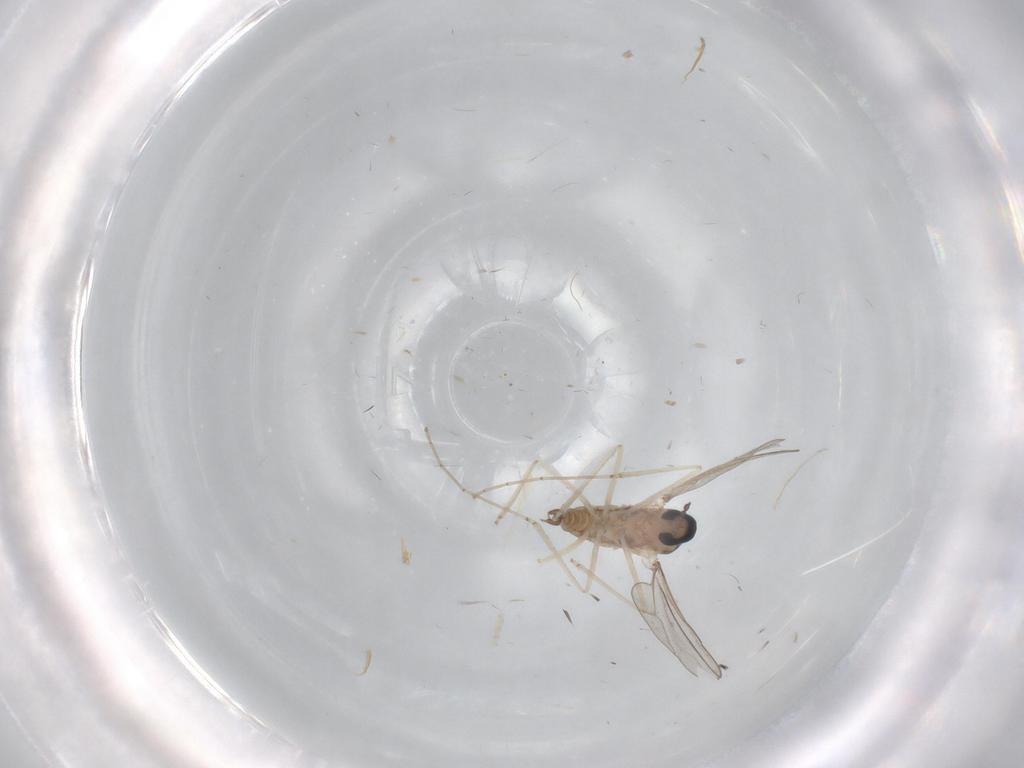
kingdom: Animalia
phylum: Arthropoda
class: Insecta
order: Diptera
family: Cecidomyiidae
